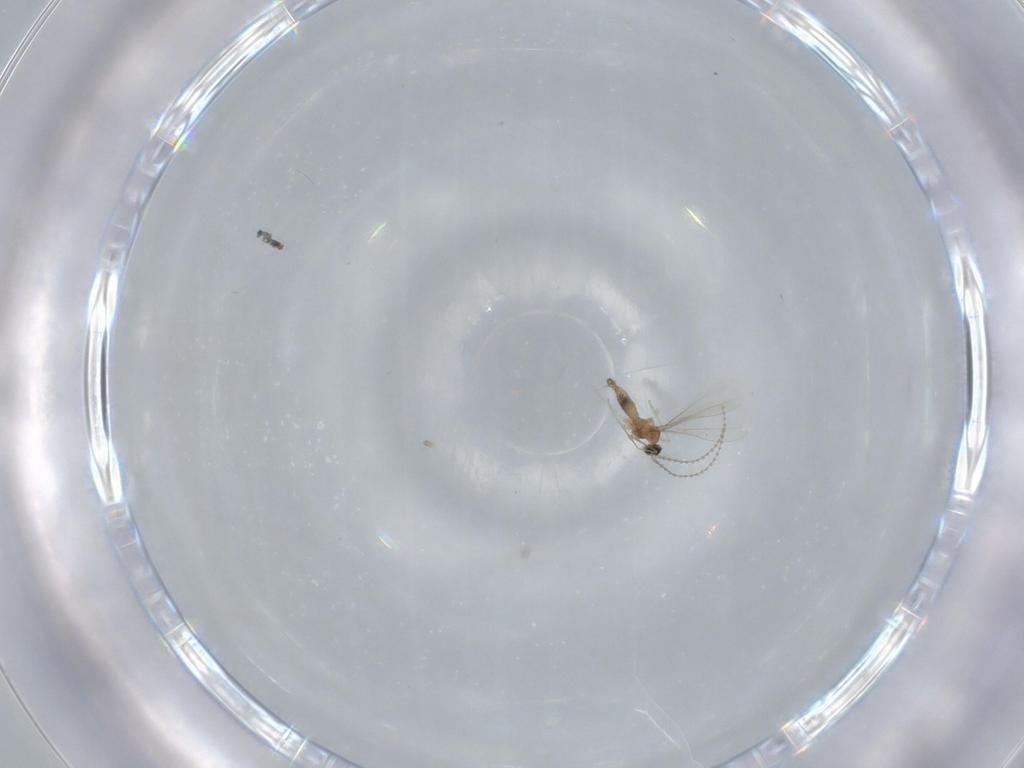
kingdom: Animalia
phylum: Arthropoda
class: Insecta
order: Diptera
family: Cecidomyiidae
